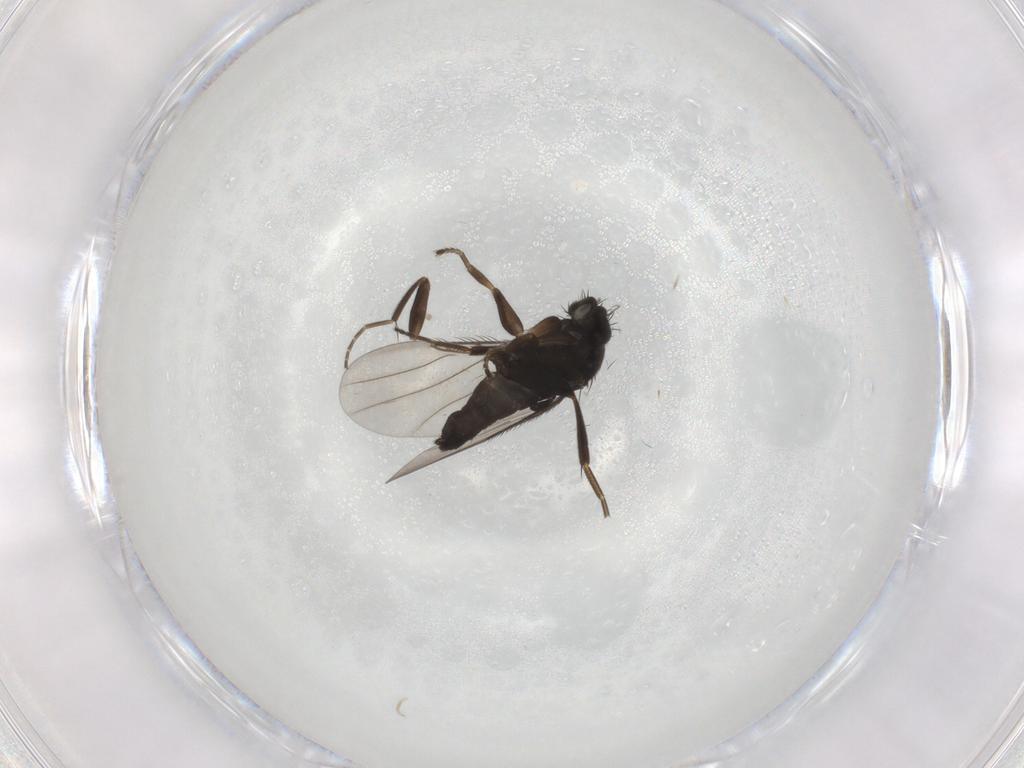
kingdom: Animalia
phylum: Arthropoda
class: Insecta
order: Diptera
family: Phoridae
